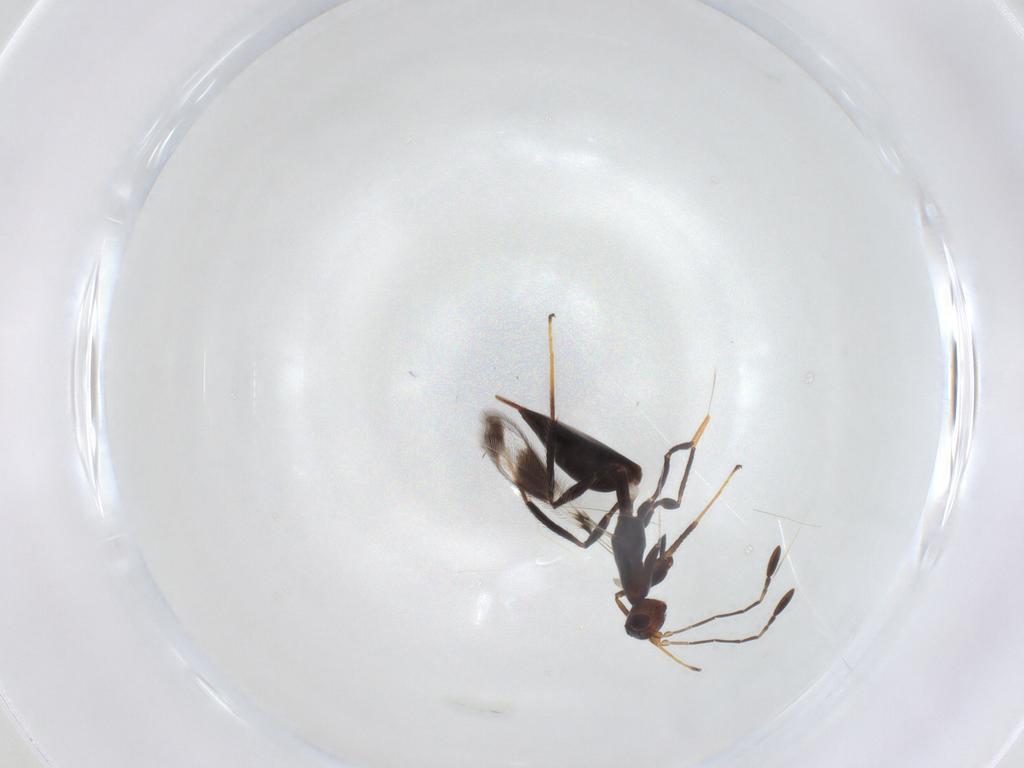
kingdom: Animalia
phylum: Arthropoda
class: Insecta
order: Hymenoptera
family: Mymaridae
